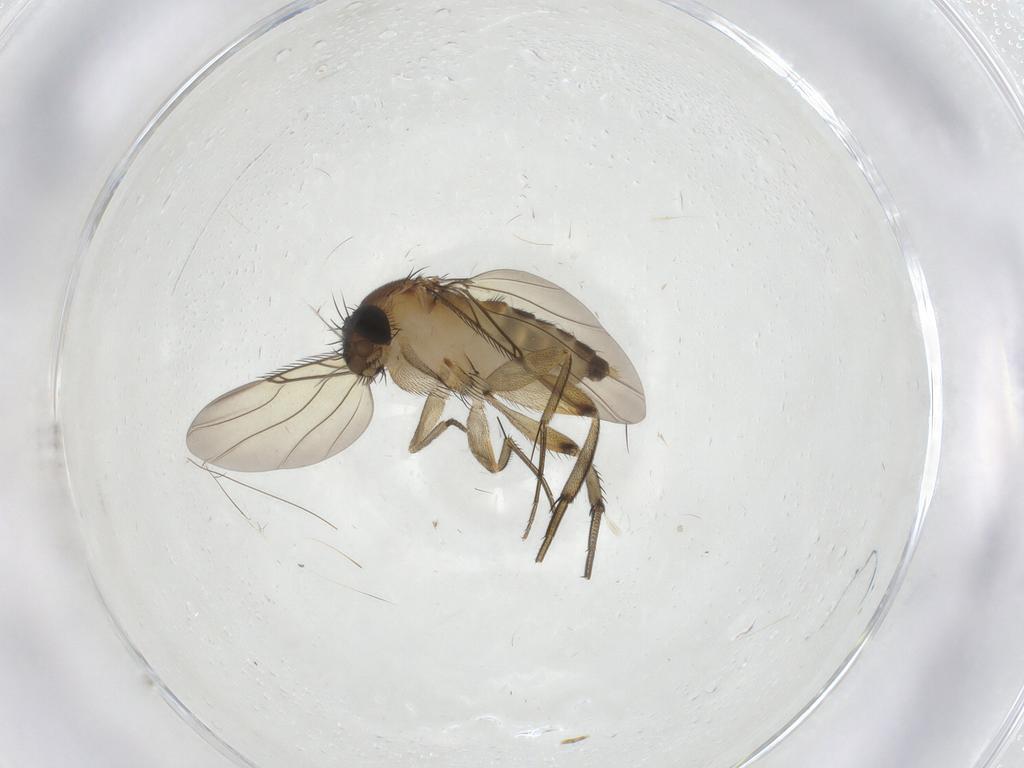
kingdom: Animalia
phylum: Arthropoda
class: Insecta
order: Diptera
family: Phoridae
